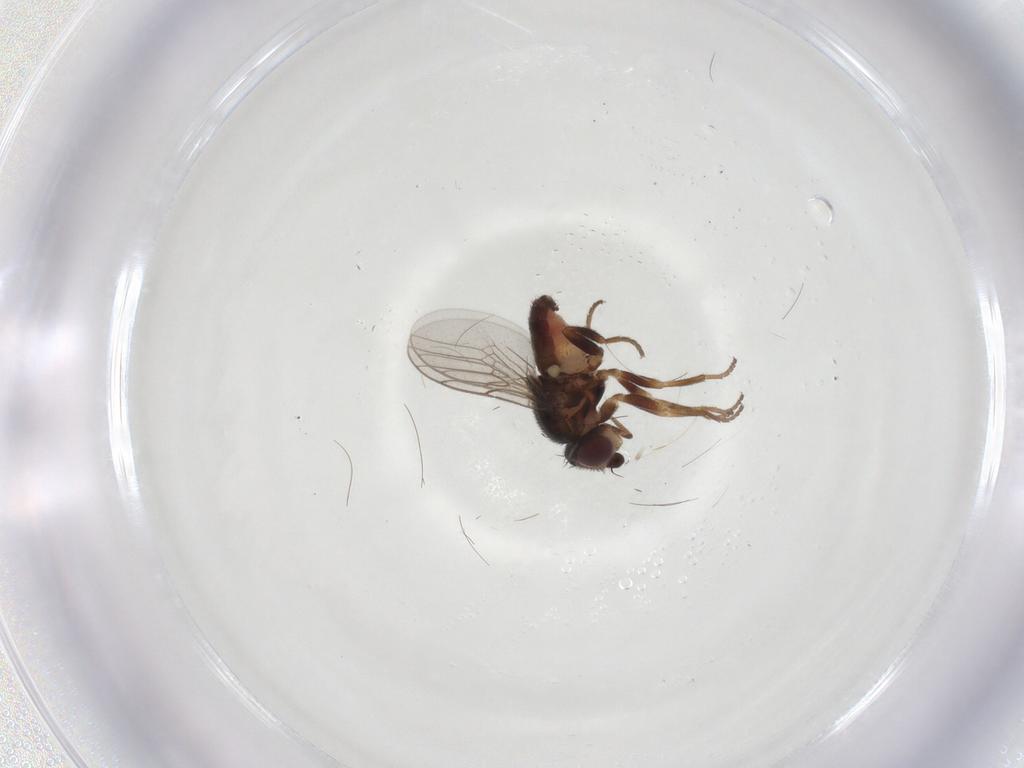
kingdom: Animalia
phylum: Arthropoda
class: Insecta
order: Diptera
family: Chloropidae
